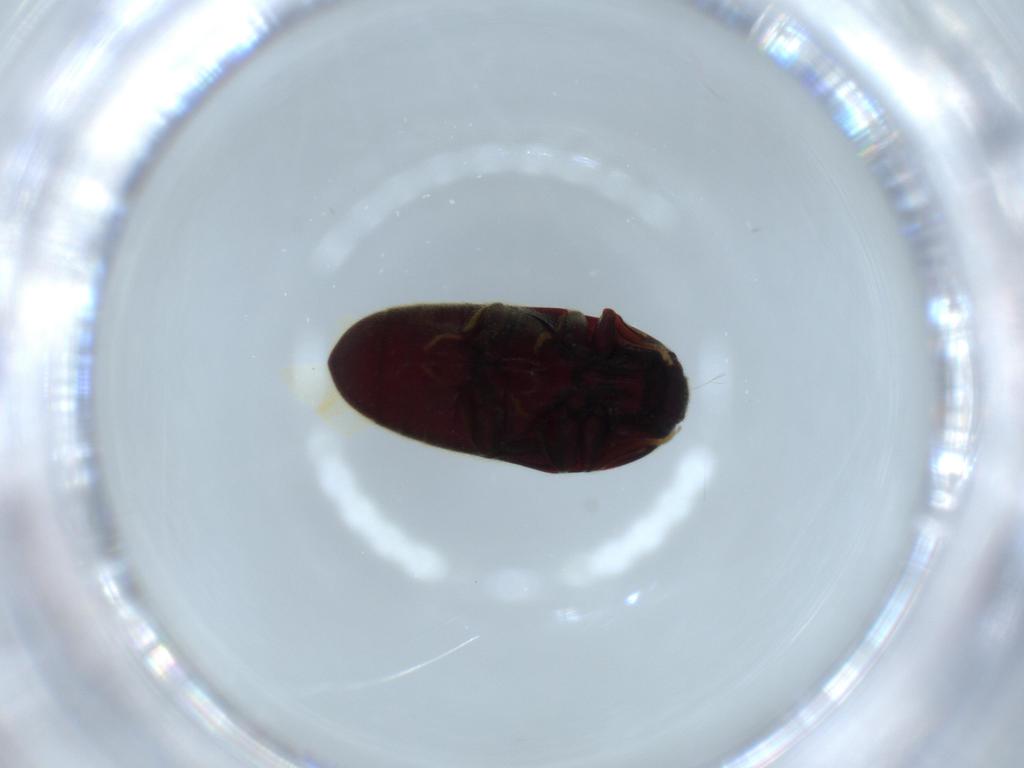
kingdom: Animalia
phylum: Arthropoda
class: Insecta
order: Coleoptera
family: Throscidae
